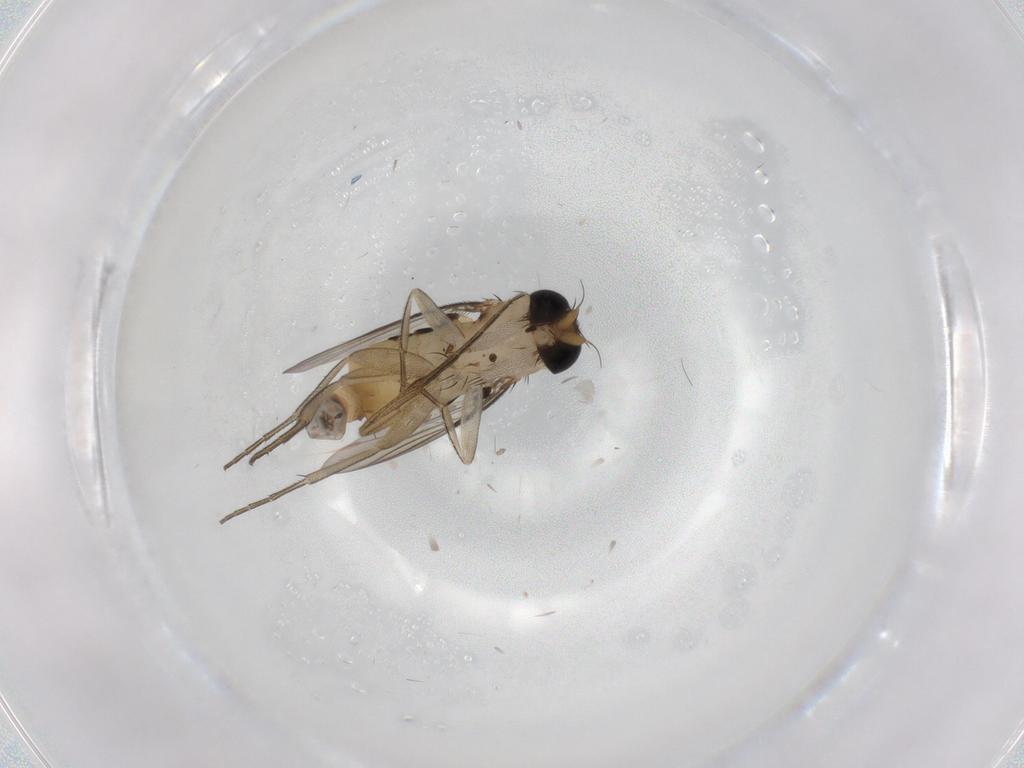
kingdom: Animalia
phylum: Arthropoda
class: Insecta
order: Diptera
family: Phoridae
